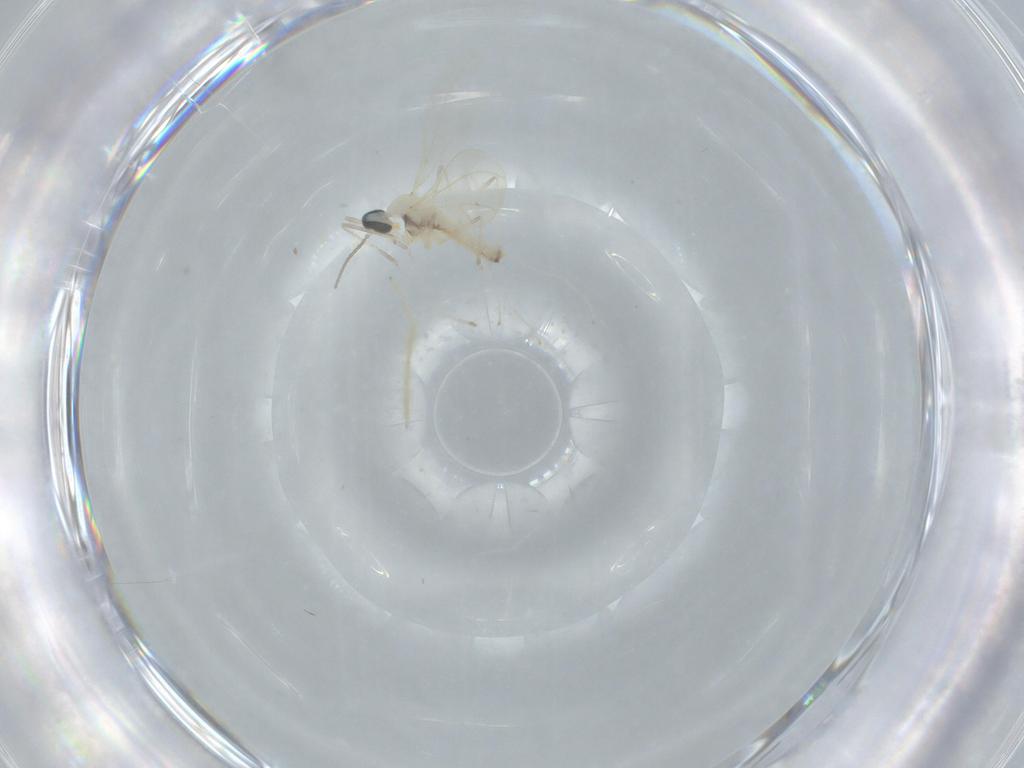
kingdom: Animalia
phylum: Arthropoda
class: Insecta
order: Diptera
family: Cecidomyiidae
